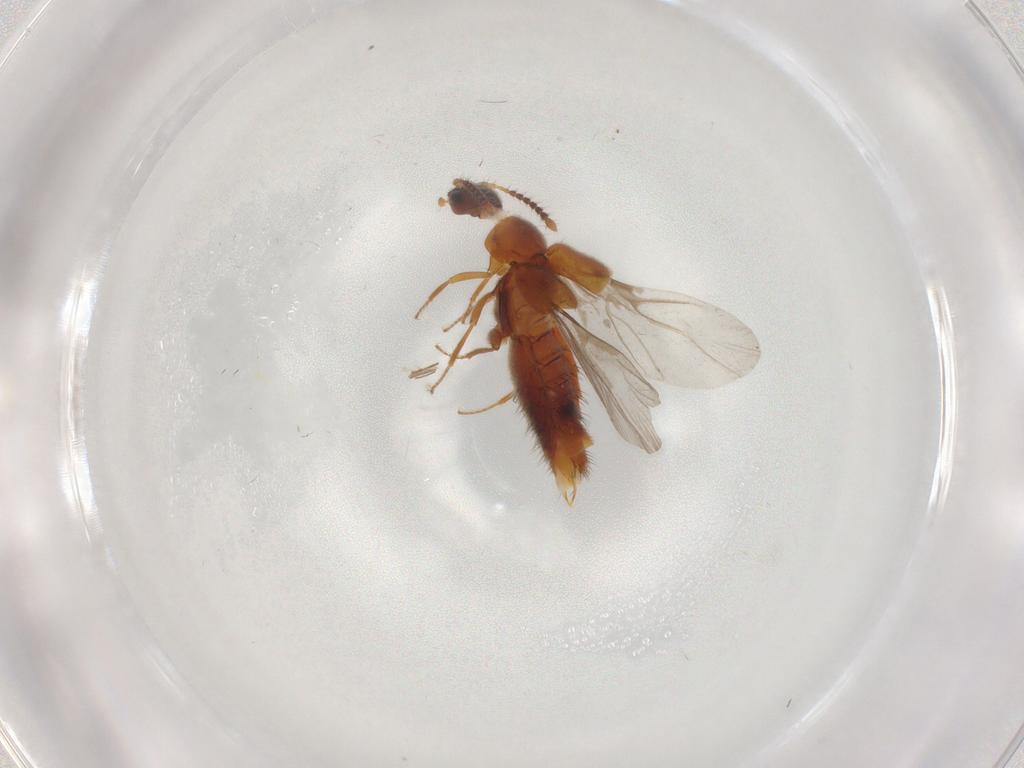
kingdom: Animalia
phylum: Arthropoda
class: Insecta
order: Coleoptera
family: Staphylinidae
